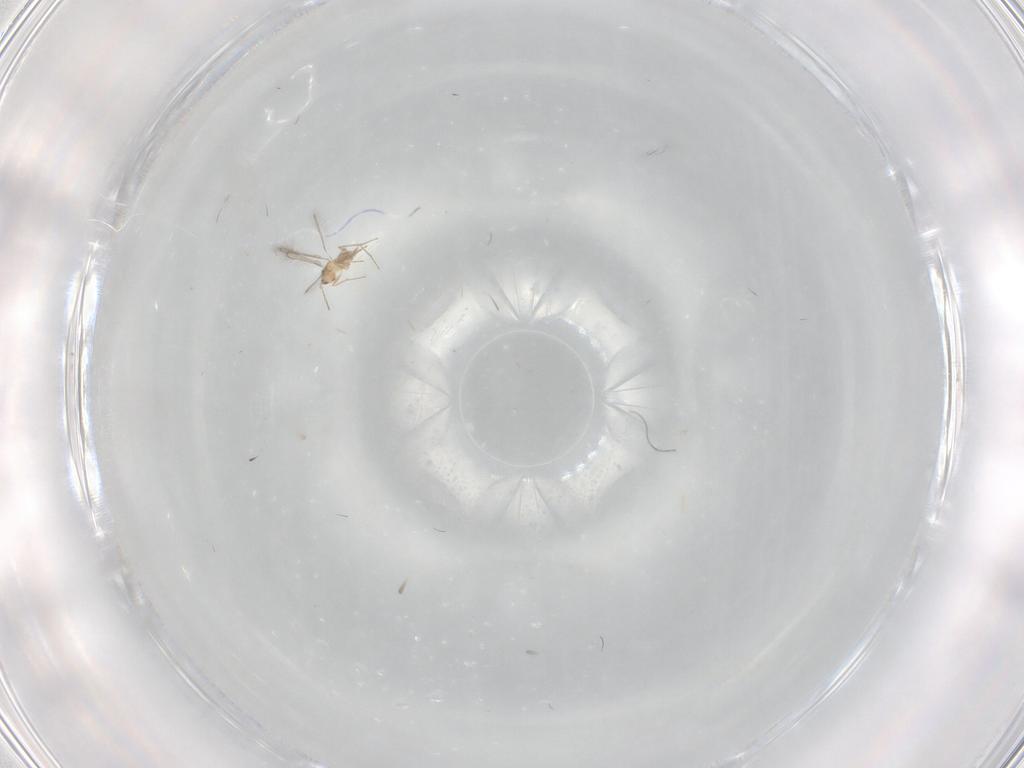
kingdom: Animalia
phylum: Arthropoda
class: Insecta
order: Hymenoptera
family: Mymaridae
